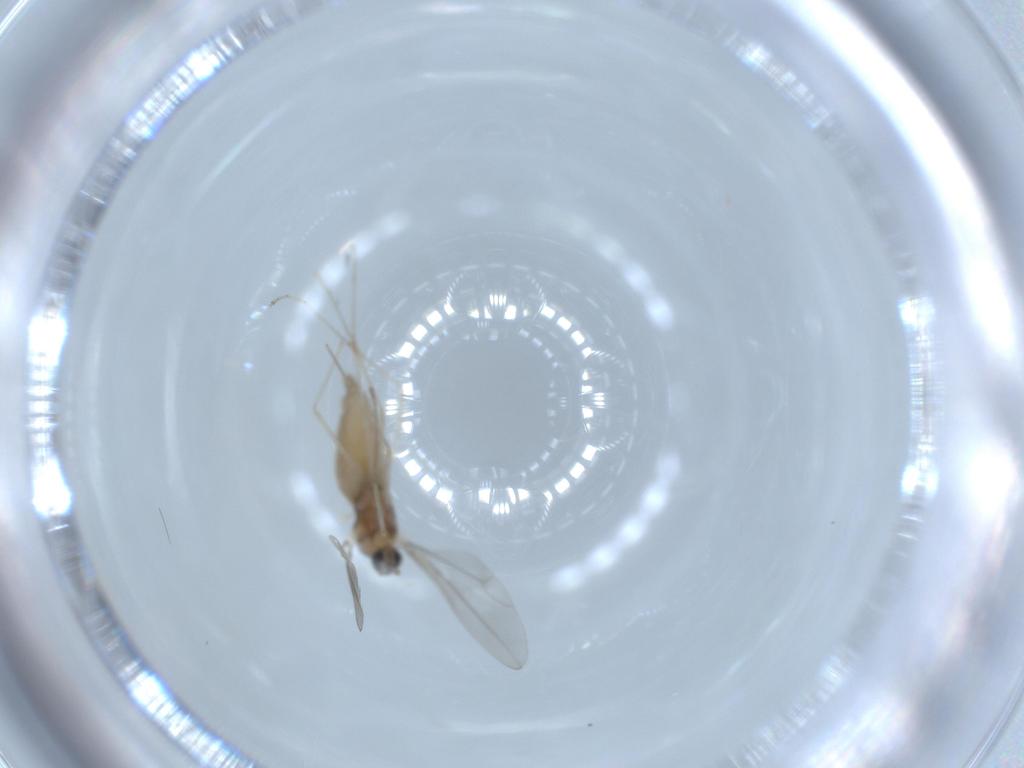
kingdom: Animalia
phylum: Arthropoda
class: Insecta
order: Diptera
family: Cecidomyiidae
